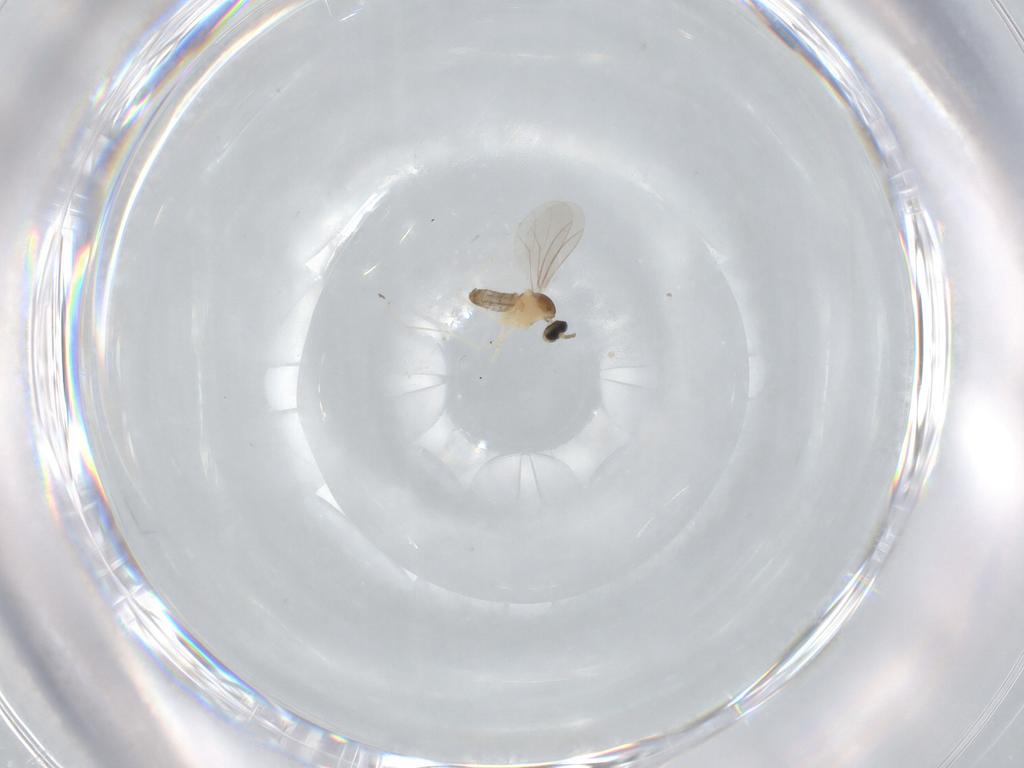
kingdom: Animalia
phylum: Arthropoda
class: Insecta
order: Diptera
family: Cecidomyiidae
